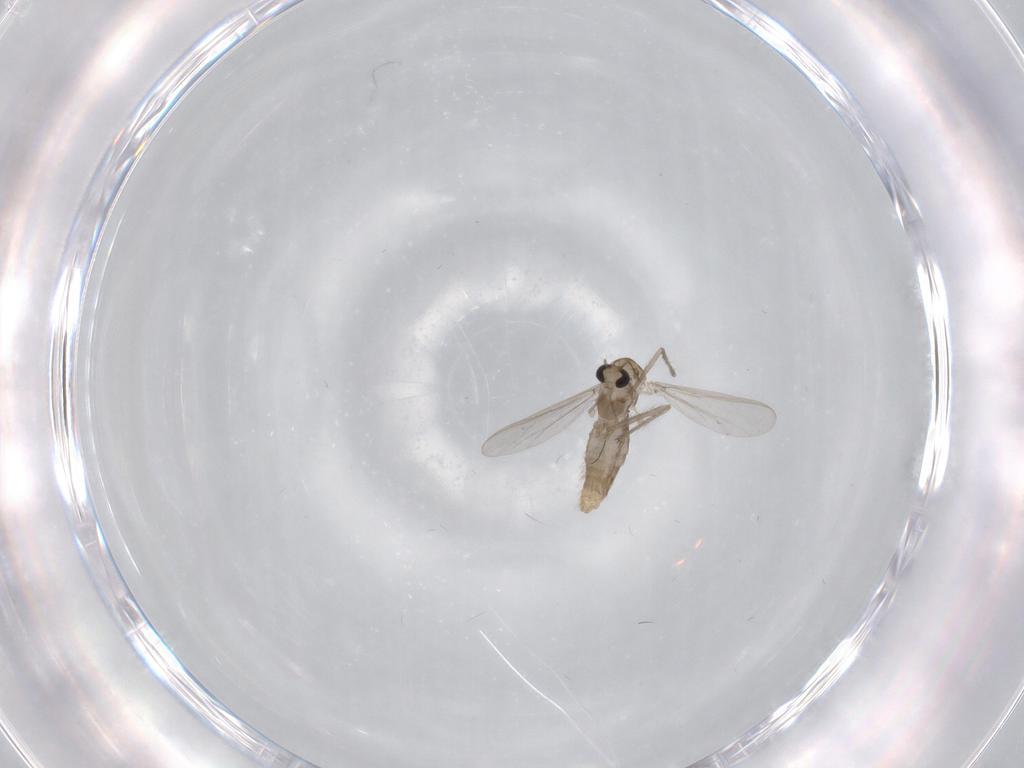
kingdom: Animalia
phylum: Arthropoda
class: Insecta
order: Diptera
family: Chironomidae
